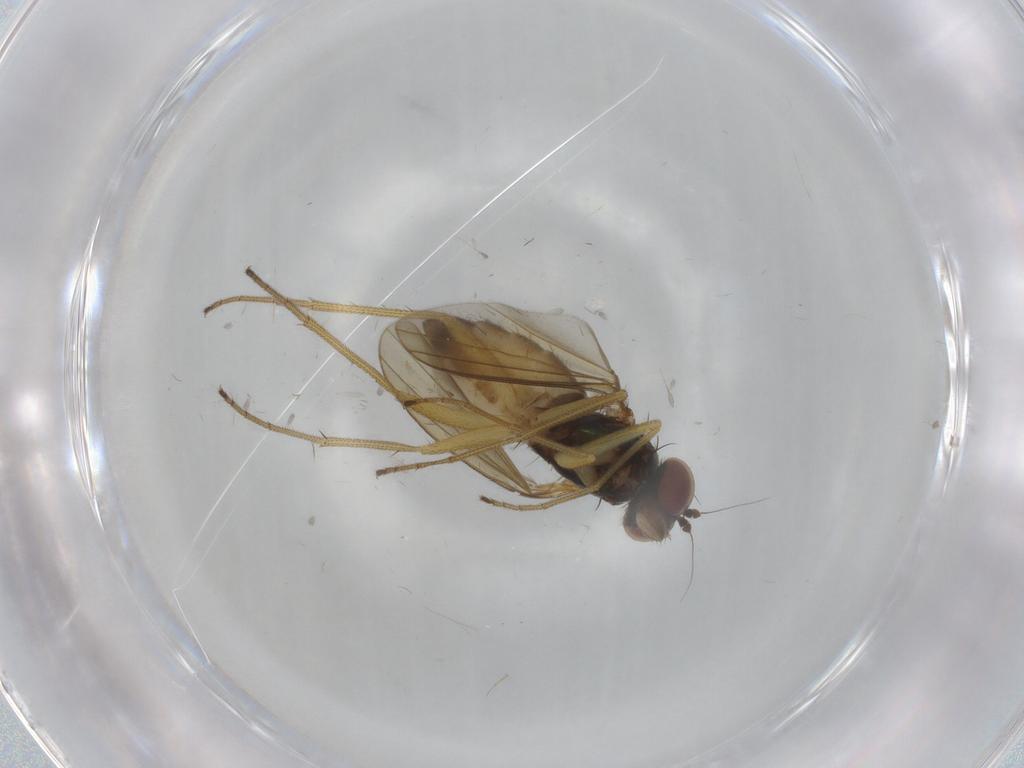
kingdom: Animalia
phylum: Arthropoda
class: Insecta
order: Diptera
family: Dolichopodidae
